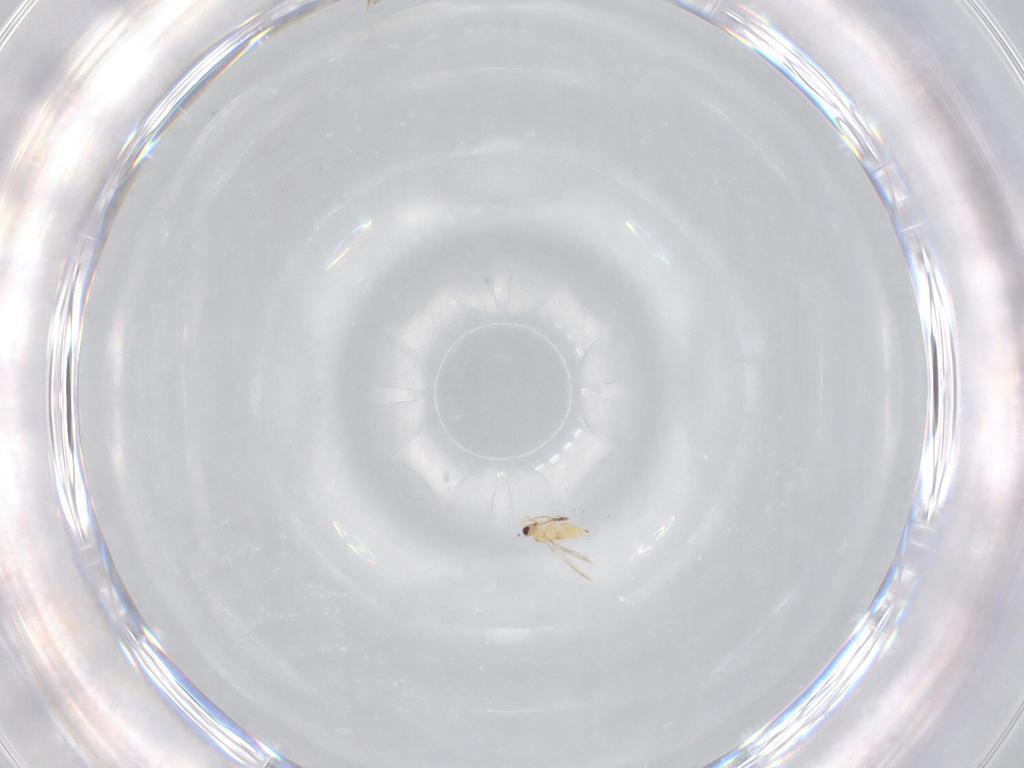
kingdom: Animalia
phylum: Arthropoda
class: Insecta
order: Hymenoptera
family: Mymaridae
